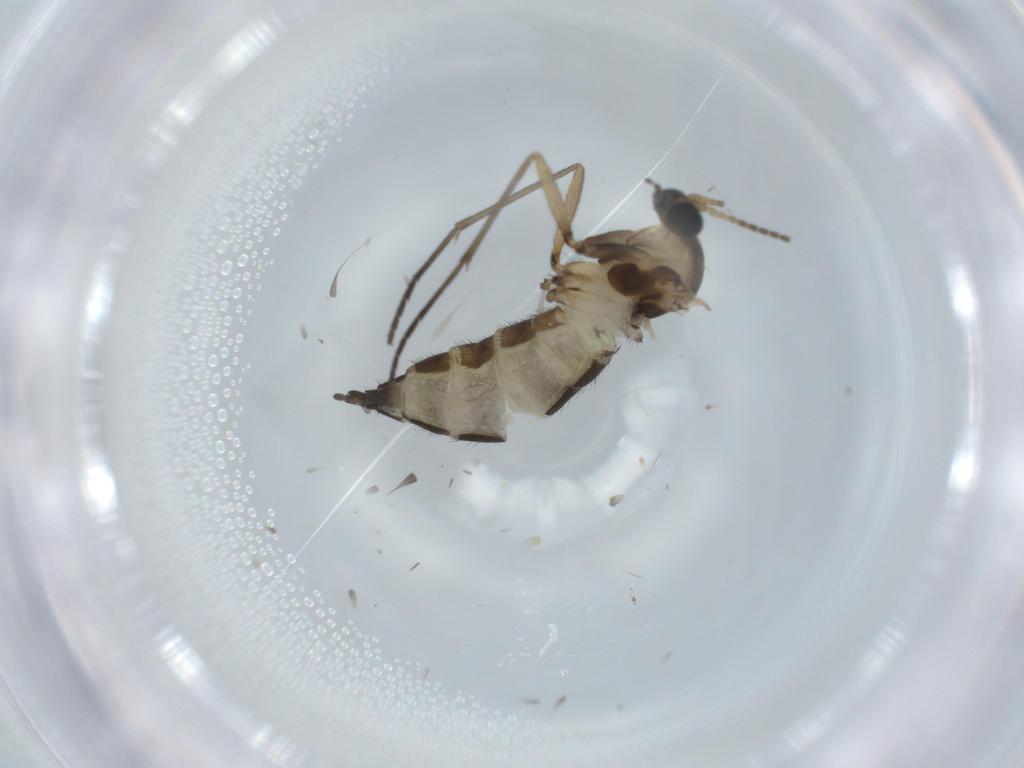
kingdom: Animalia
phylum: Arthropoda
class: Insecta
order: Diptera
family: Sciaridae
